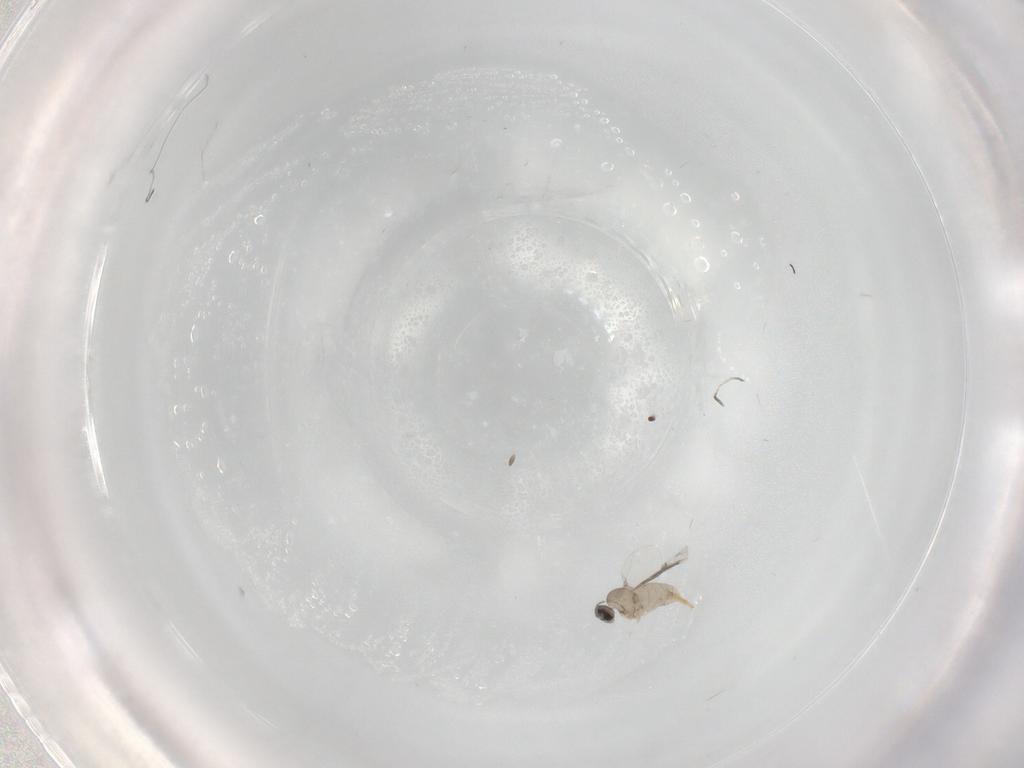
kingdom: Animalia
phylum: Arthropoda
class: Insecta
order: Diptera
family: Cecidomyiidae
